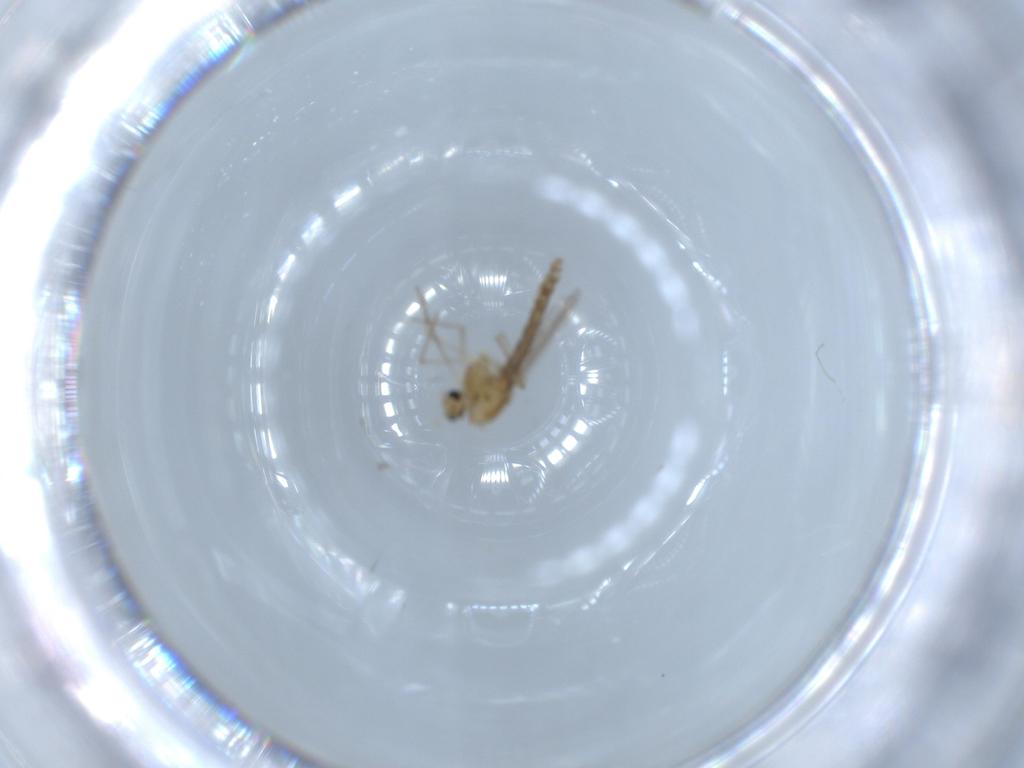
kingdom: Animalia
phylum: Arthropoda
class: Insecta
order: Diptera
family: Chironomidae
